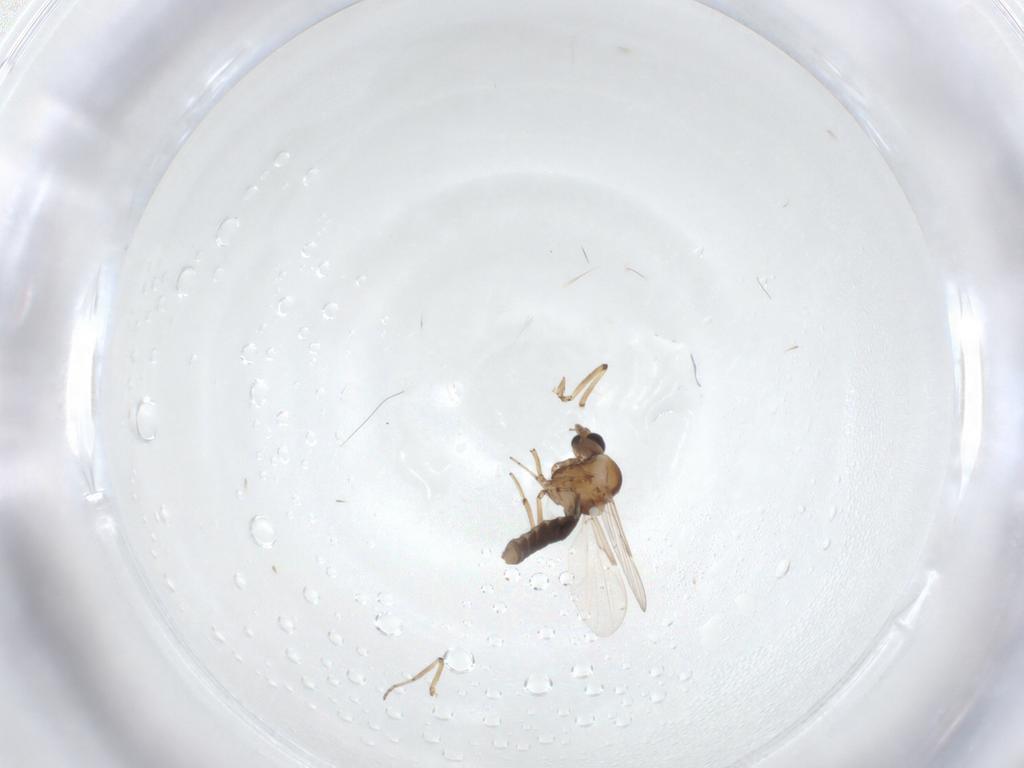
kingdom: Animalia
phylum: Arthropoda
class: Insecta
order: Diptera
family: Ceratopogonidae
